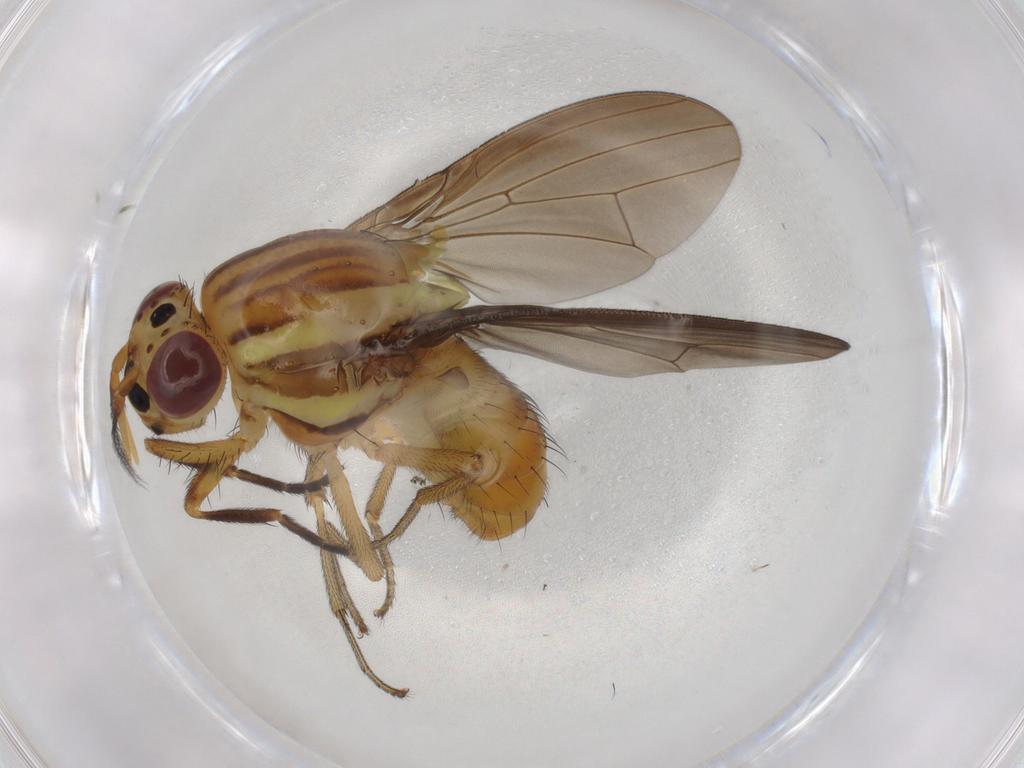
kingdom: Animalia
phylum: Arthropoda
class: Insecta
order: Diptera
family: Lauxaniidae
